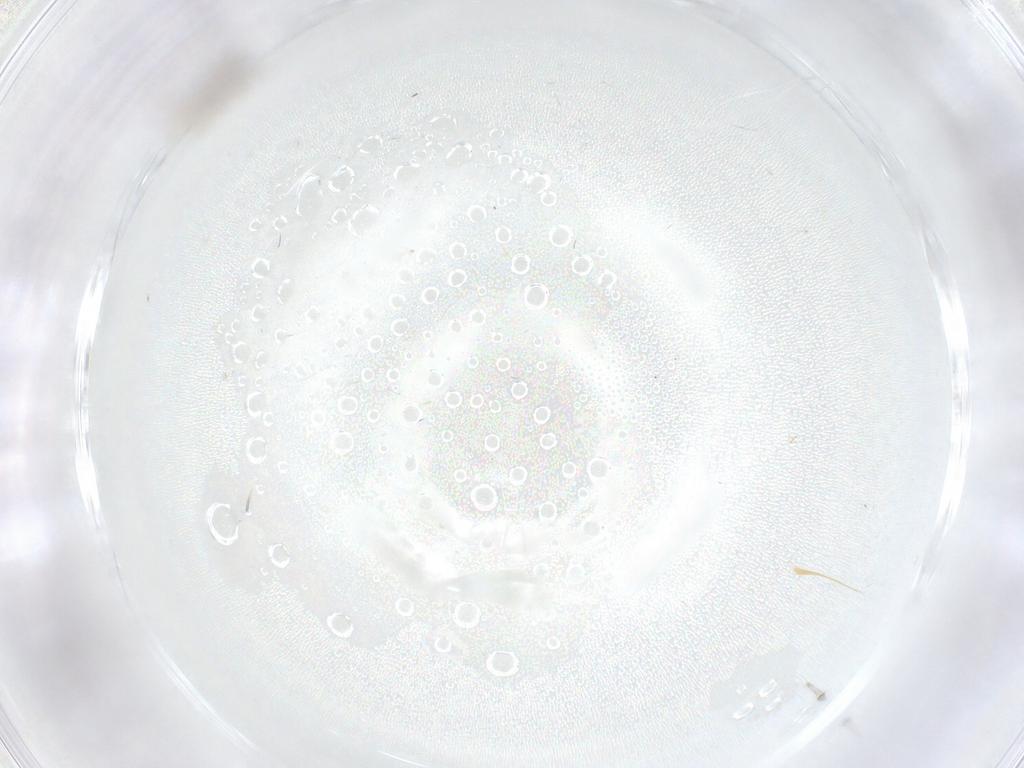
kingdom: Animalia
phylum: Arthropoda
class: Insecta
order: Diptera
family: Cecidomyiidae
